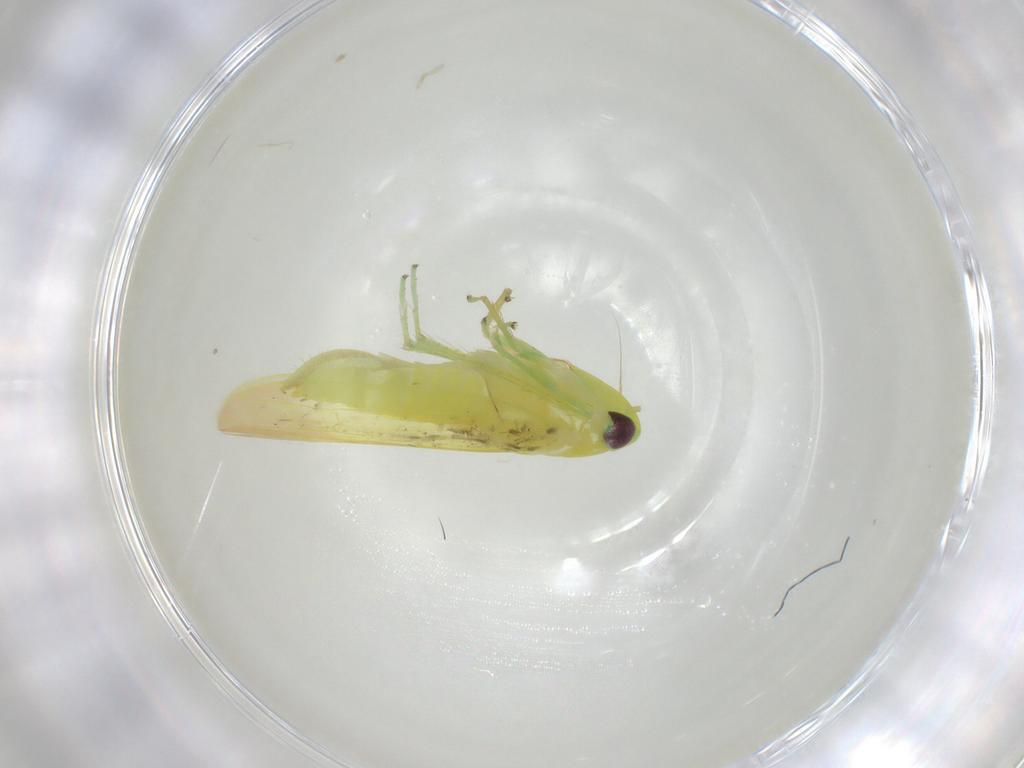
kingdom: Animalia
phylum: Arthropoda
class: Insecta
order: Hemiptera
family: Cicadellidae
